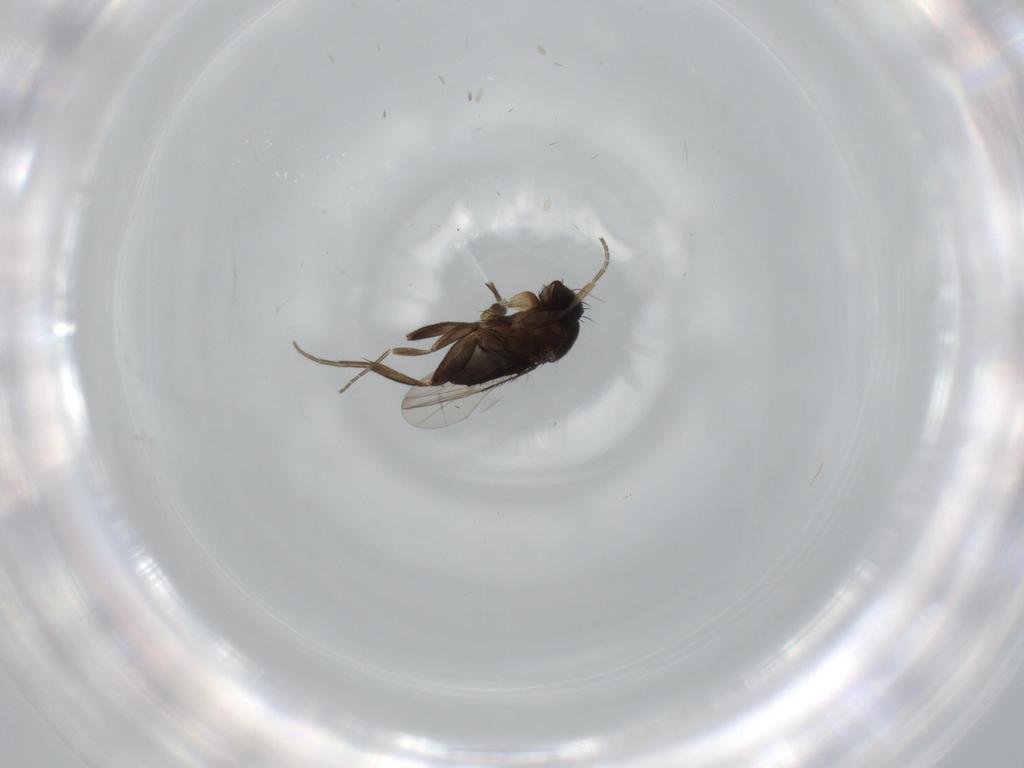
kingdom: Animalia
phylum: Arthropoda
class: Insecta
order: Diptera
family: Phoridae
